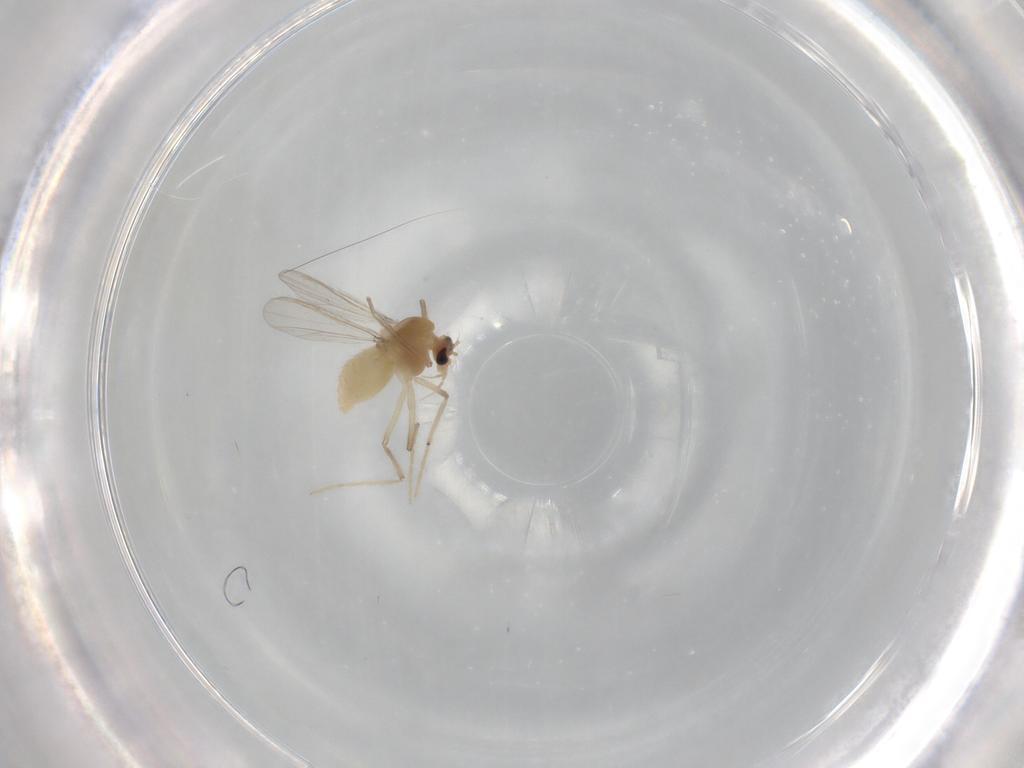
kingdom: Animalia
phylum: Arthropoda
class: Insecta
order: Diptera
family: Chironomidae
